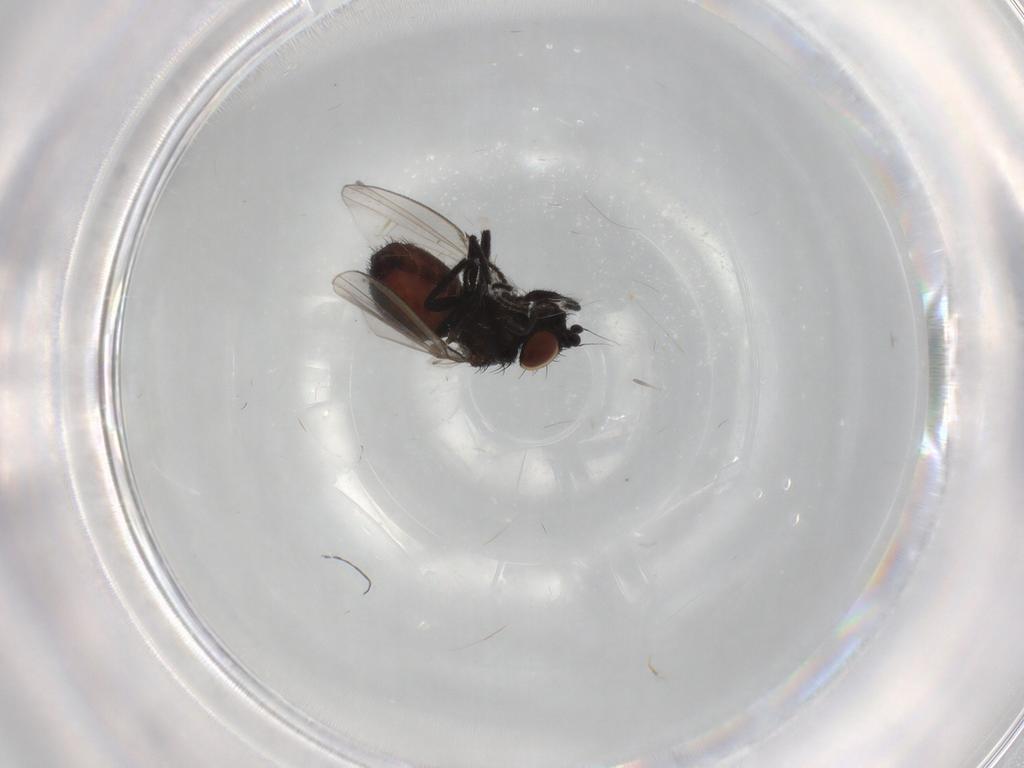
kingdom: Animalia
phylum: Arthropoda
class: Insecta
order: Diptera
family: Milichiidae
